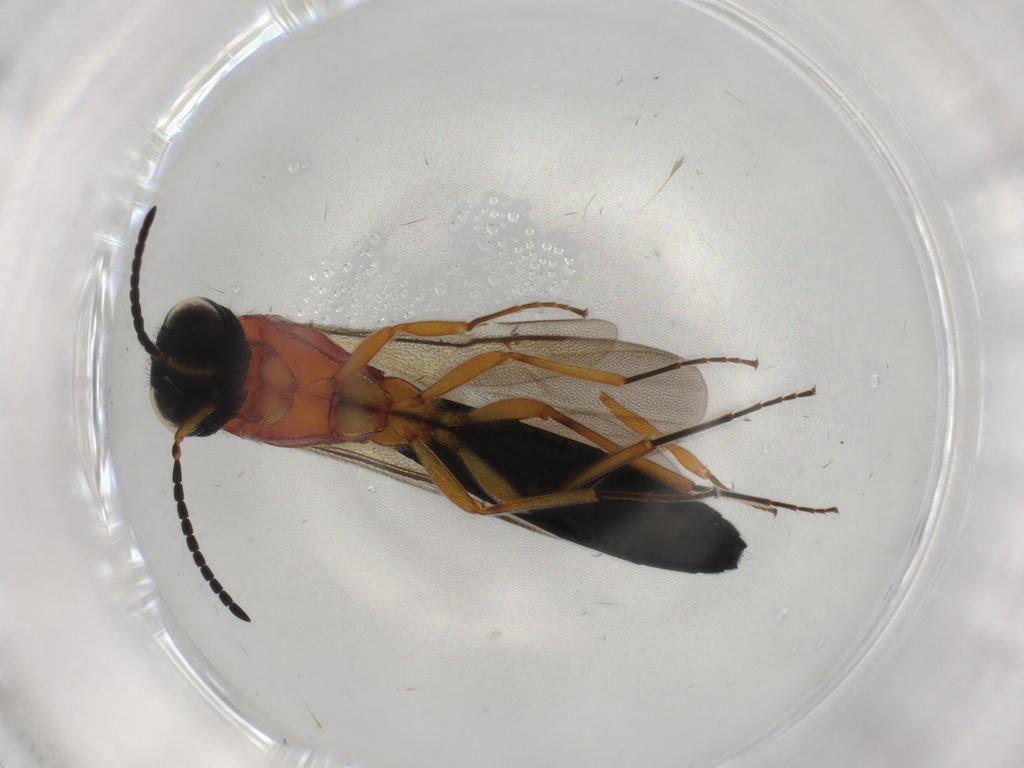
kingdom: Animalia
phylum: Arthropoda
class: Insecta
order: Hymenoptera
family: Scelionidae
